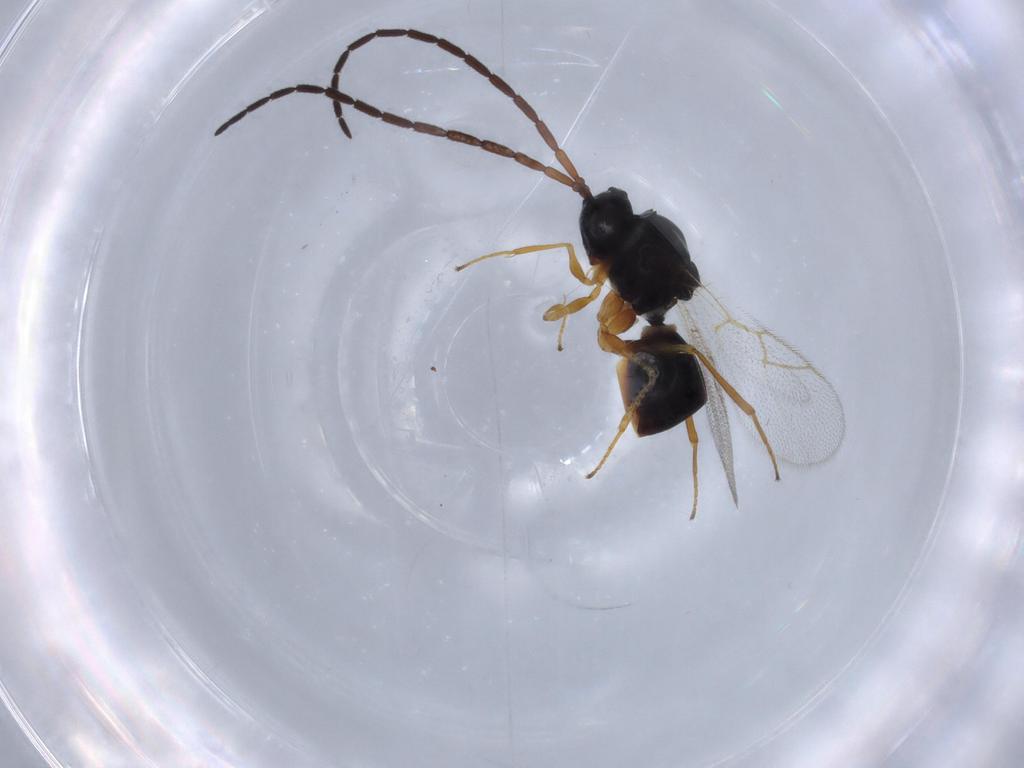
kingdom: Animalia
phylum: Arthropoda
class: Insecta
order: Hymenoptera
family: Figitidae
